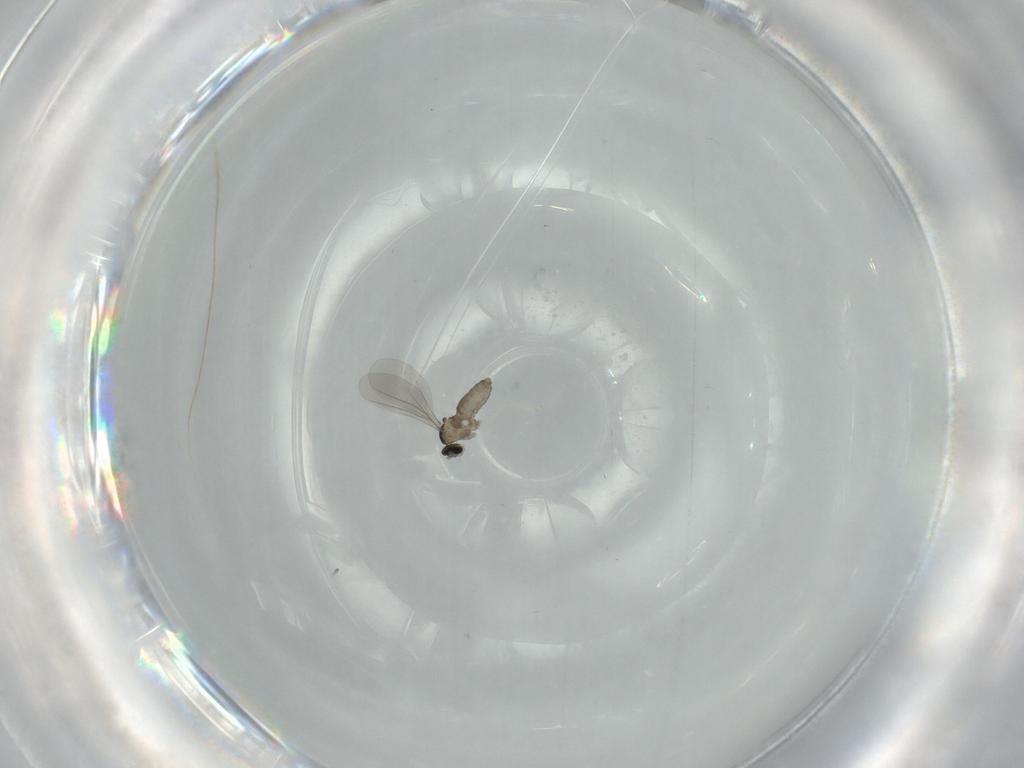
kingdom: Animalia
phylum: Arthropoda
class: Insecta
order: Diptera
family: Cecidomyiidae
